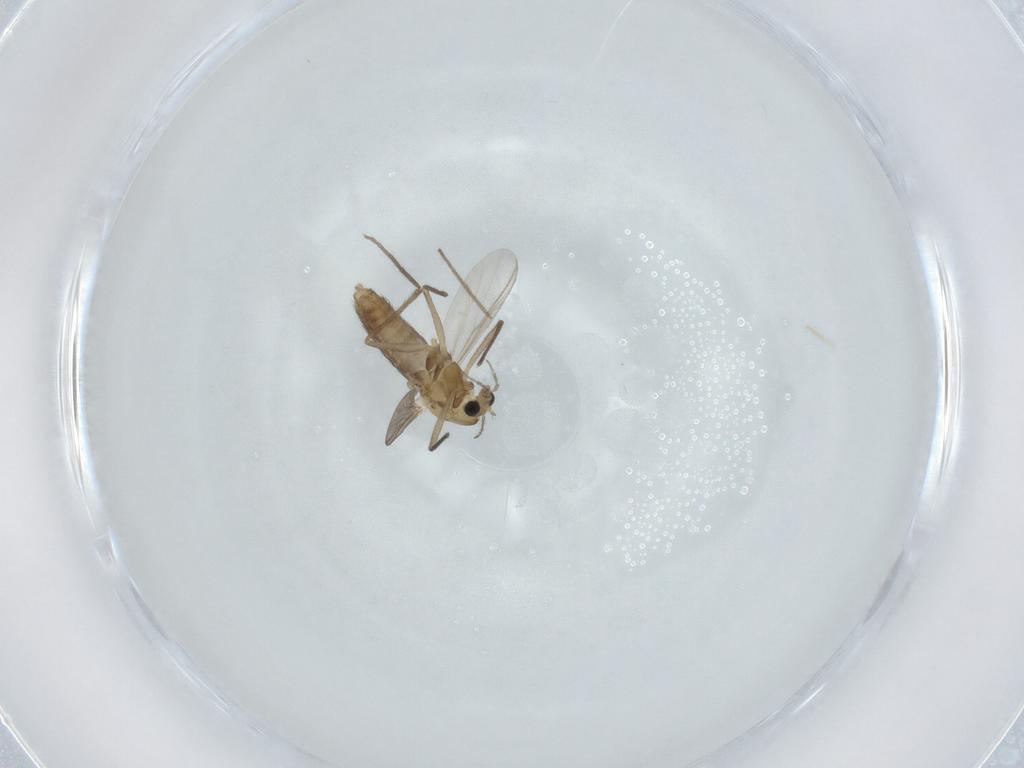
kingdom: Animalia
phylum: Arthropoda
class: Insecta
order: Diptera
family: Chironomidae
